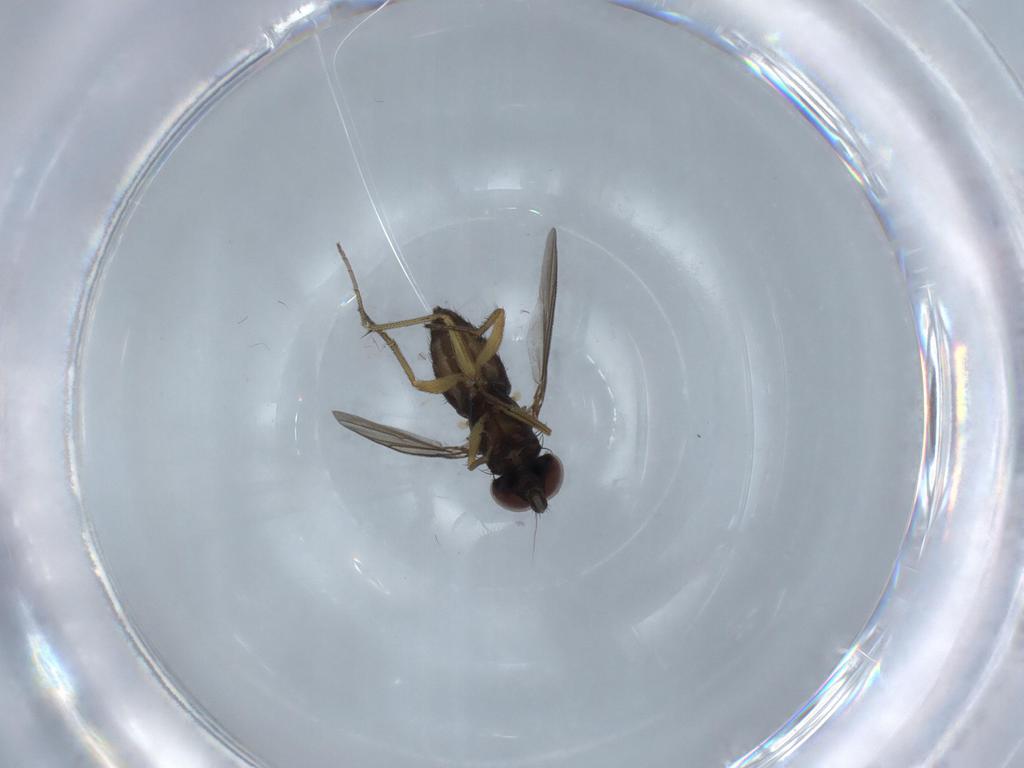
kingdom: Animalia
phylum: Arthropoda
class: Insecta
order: Diptera
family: Dolichopodidae
